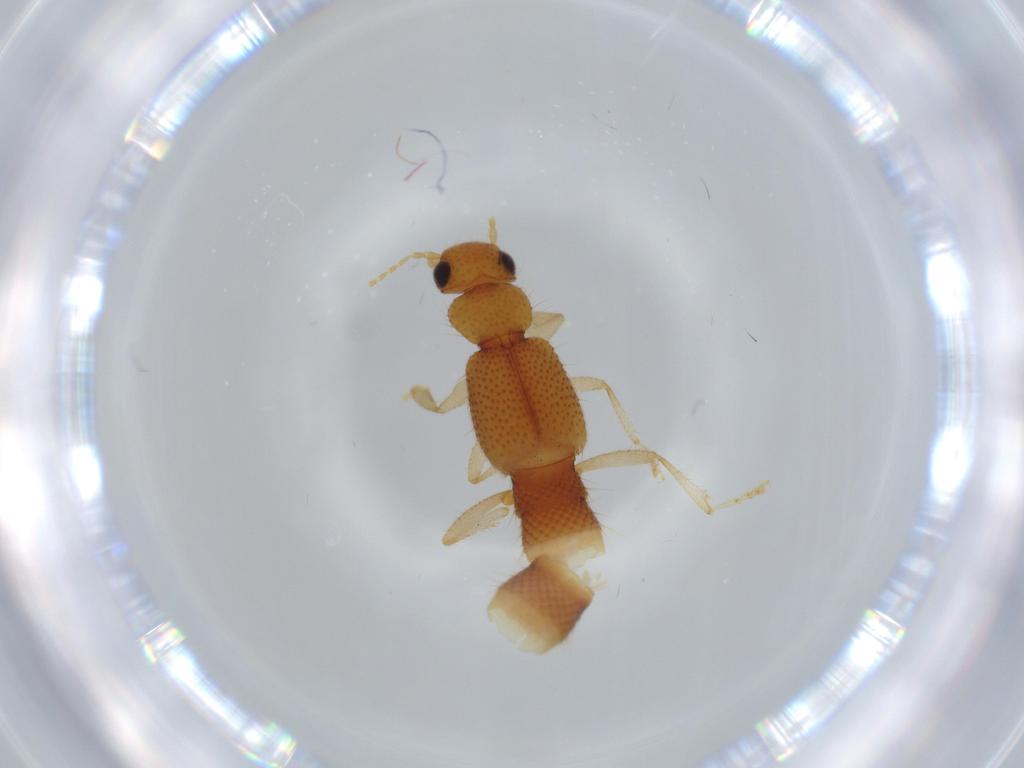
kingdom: Animalia
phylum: Arthropoda
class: Insecta
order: Coleoptera
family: Staphylinidae
